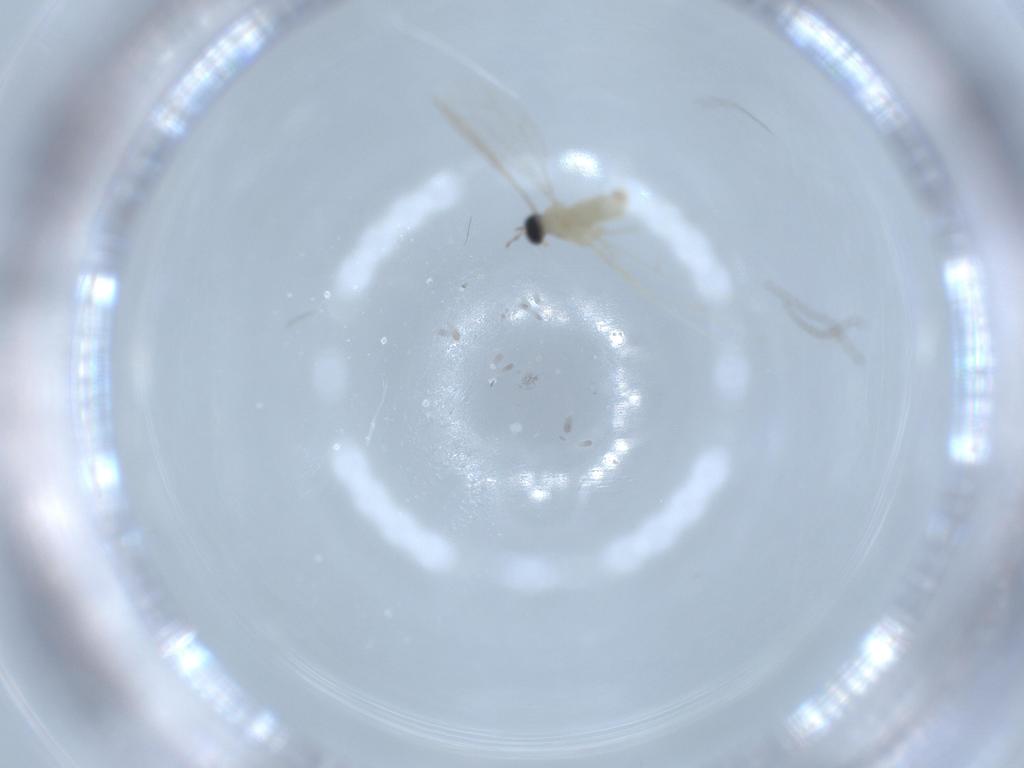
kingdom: Animalia
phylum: Arthropoda
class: Insecta
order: Diptera
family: Cecidomyiidae
